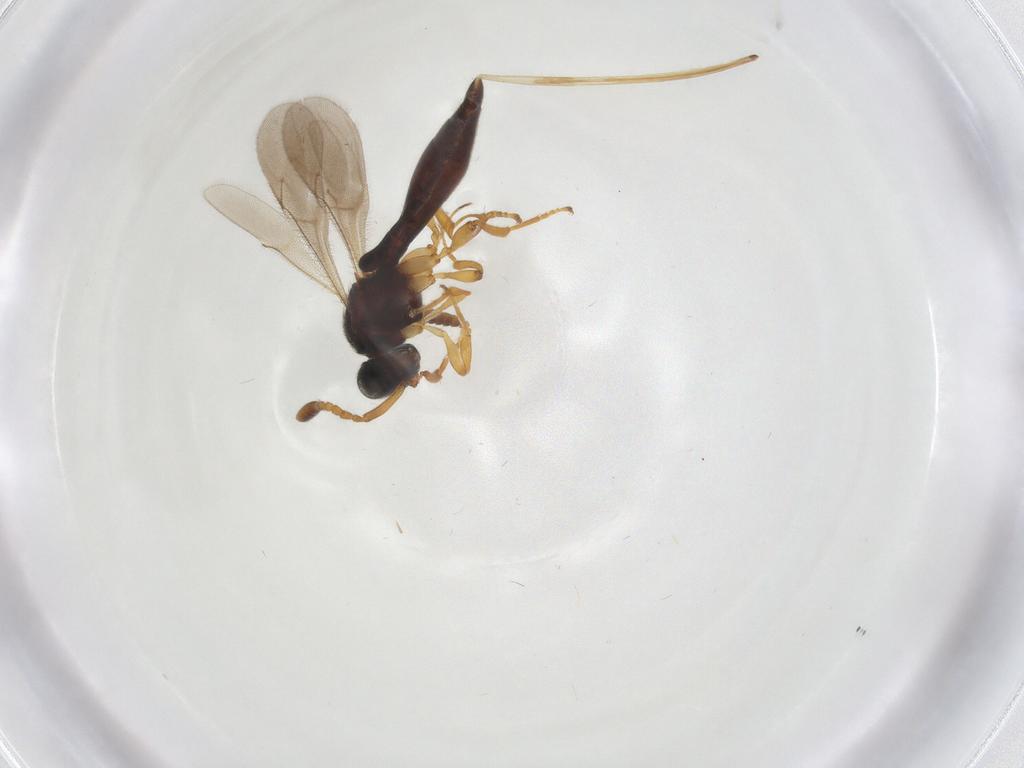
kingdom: Animalia
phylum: Arthropoda
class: Insecta
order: Hymenoptera
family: Scelionidae
